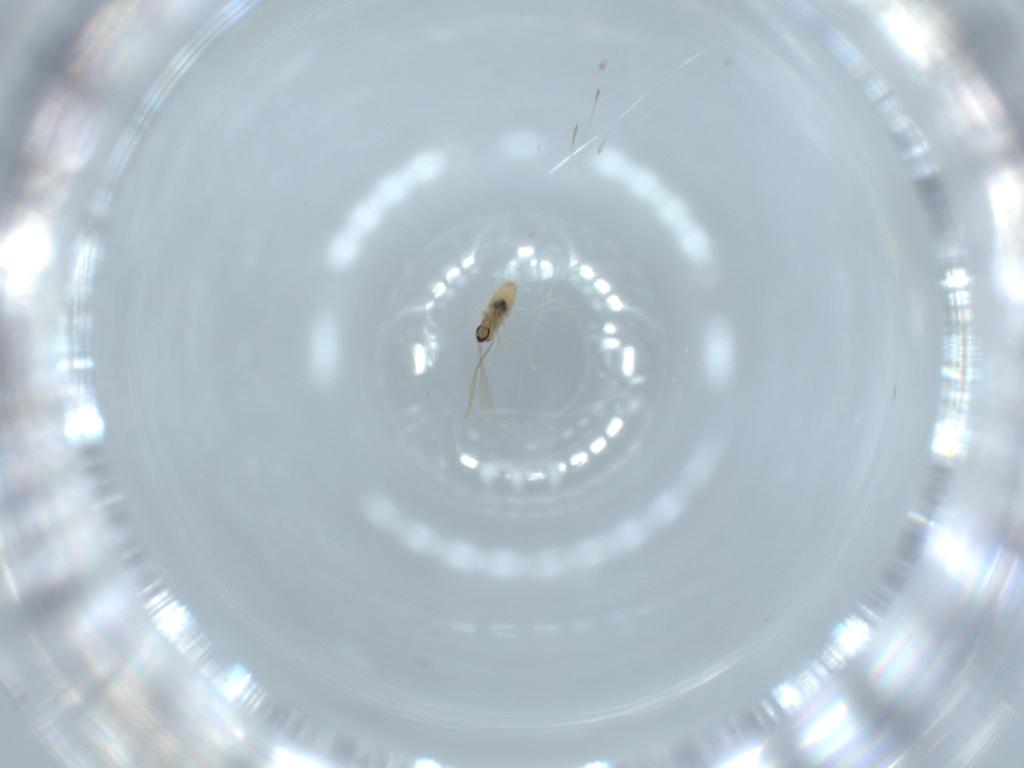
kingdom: Animalia
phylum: Arthropoda
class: Insecta
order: Diptera
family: Cecidomyiidae
